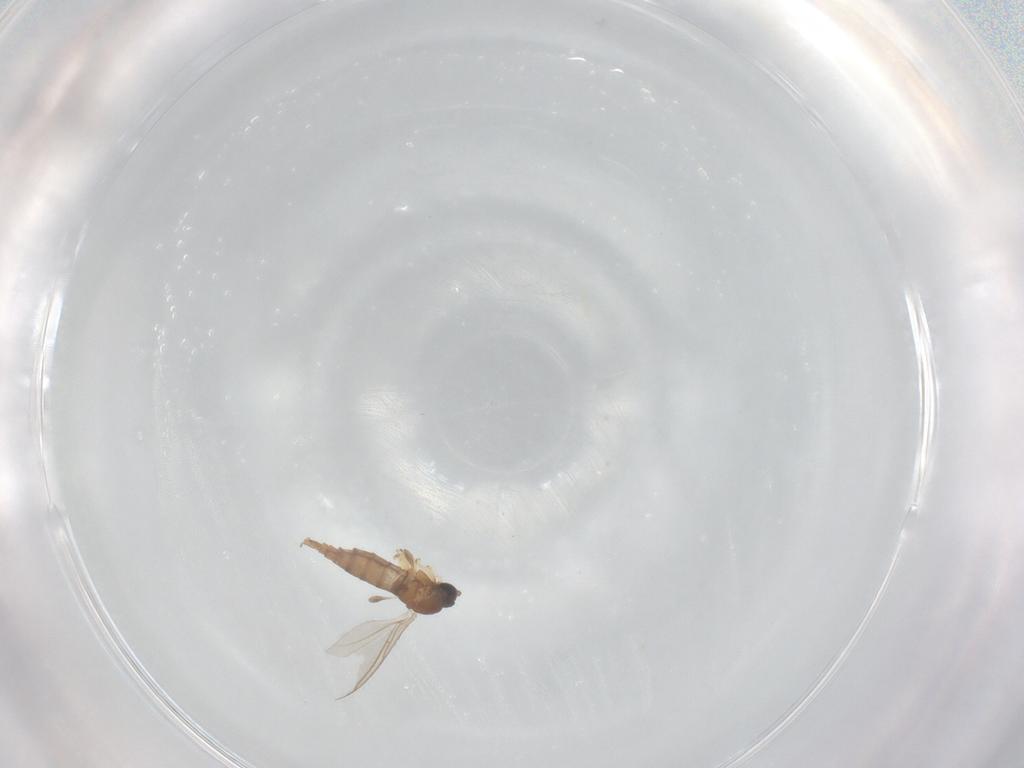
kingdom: Animalia
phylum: Arthropoda
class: Insecta
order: Diptera
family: Sciaridae
